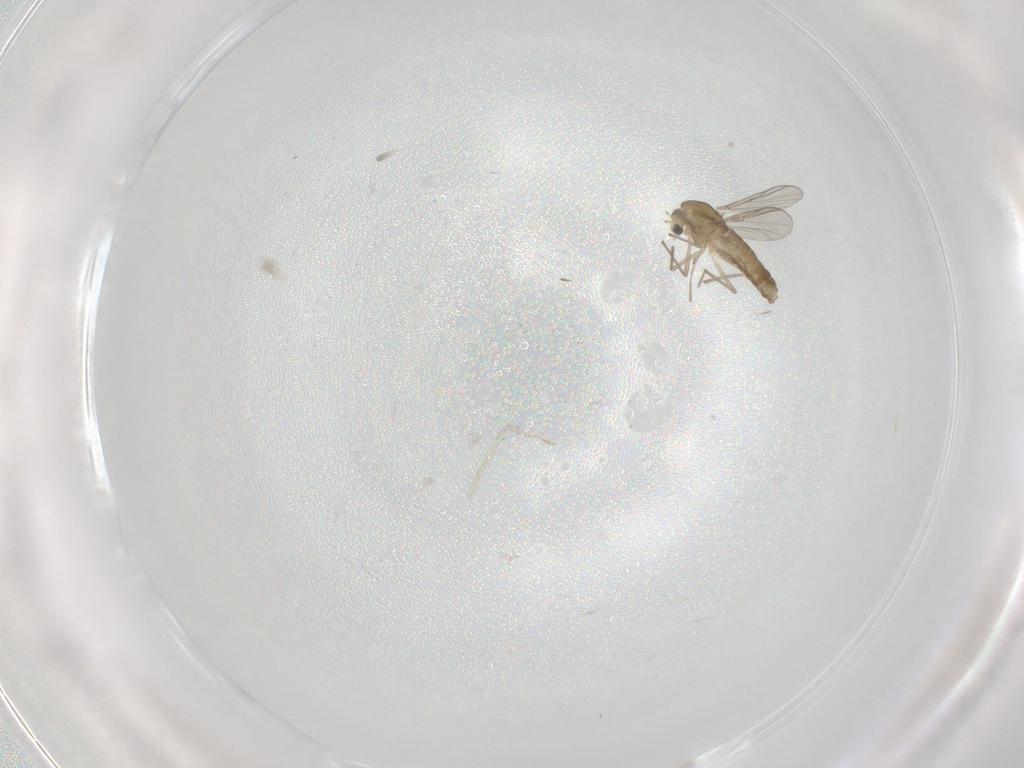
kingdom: Animalia
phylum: Arthropoda
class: Insecta
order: Diptera
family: Chironomidae
